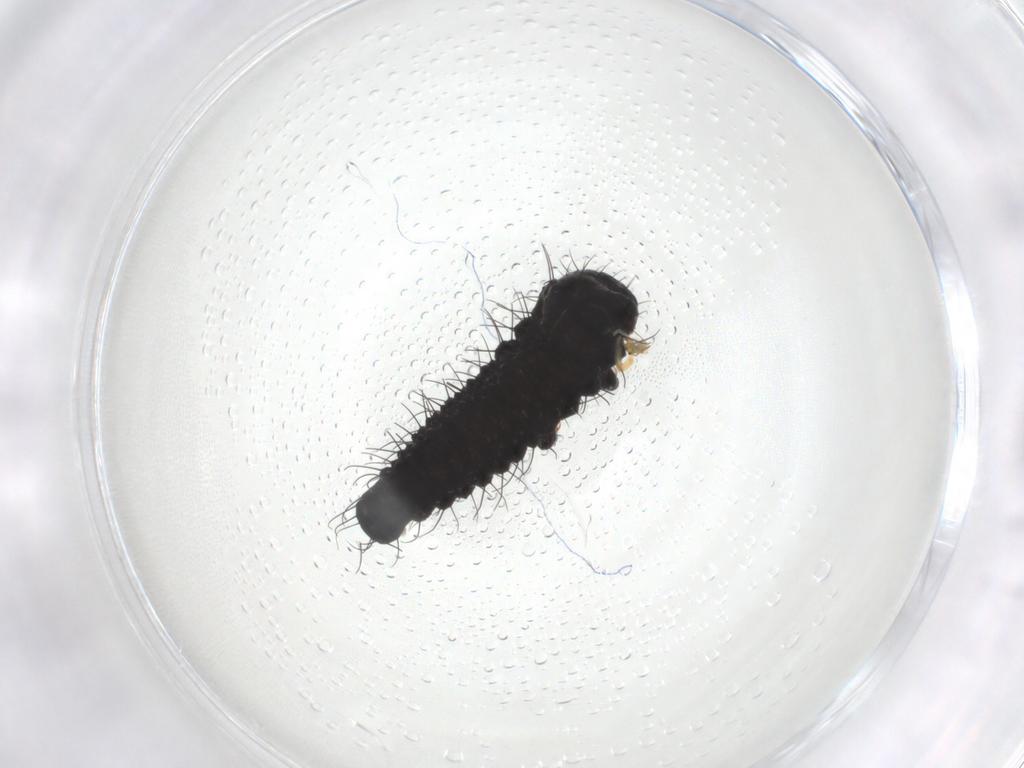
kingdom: Animalia
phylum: Arthropoda
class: Insecta
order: Coleoptera
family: Chrysomelidae
